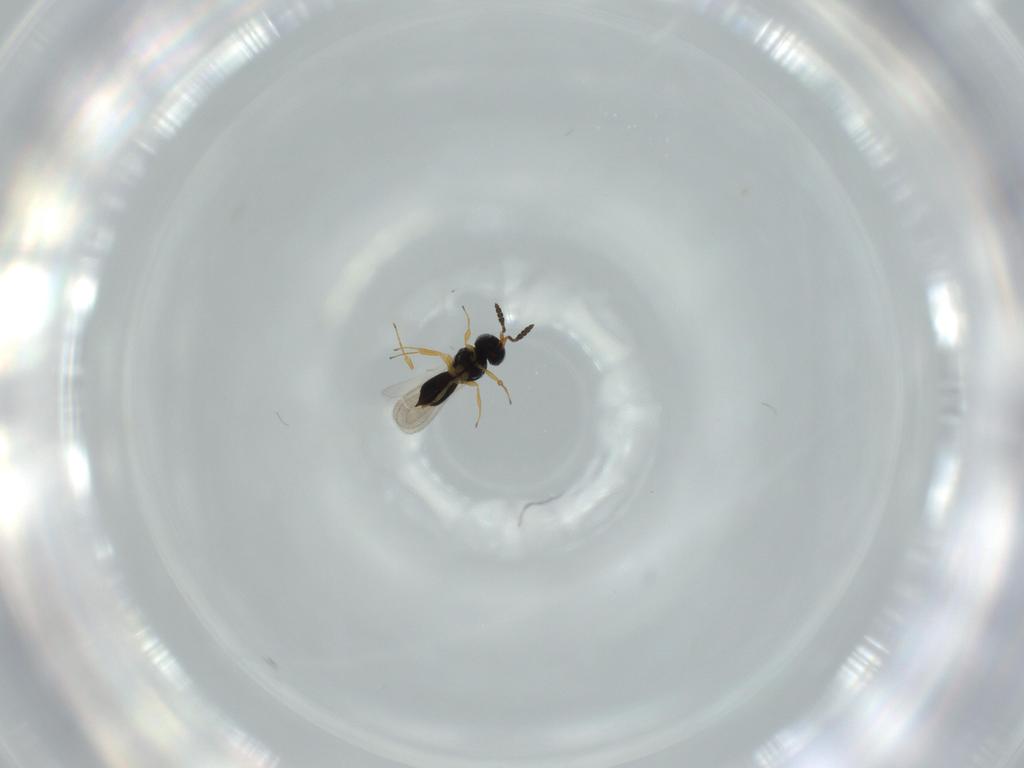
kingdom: Animalia
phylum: Arthropoda
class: Insecta
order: Hymenoptera
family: Scelionidae
